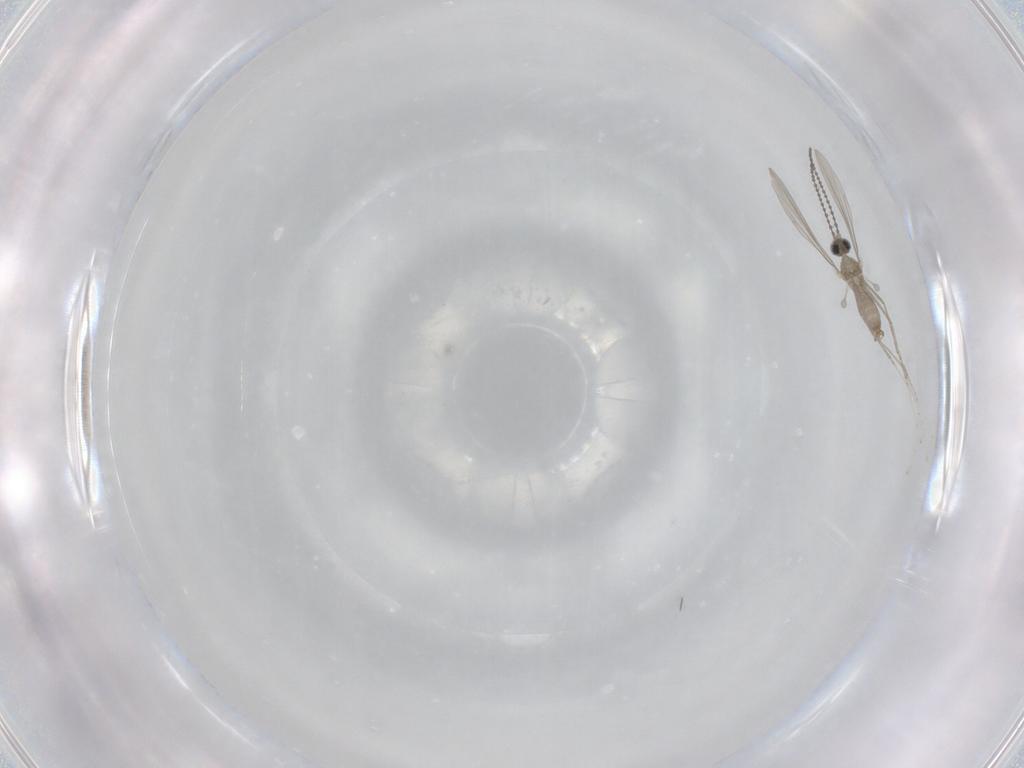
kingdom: Animalia
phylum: Arthropoda
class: Insecta
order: Diptera
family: Cecidomyiidae
